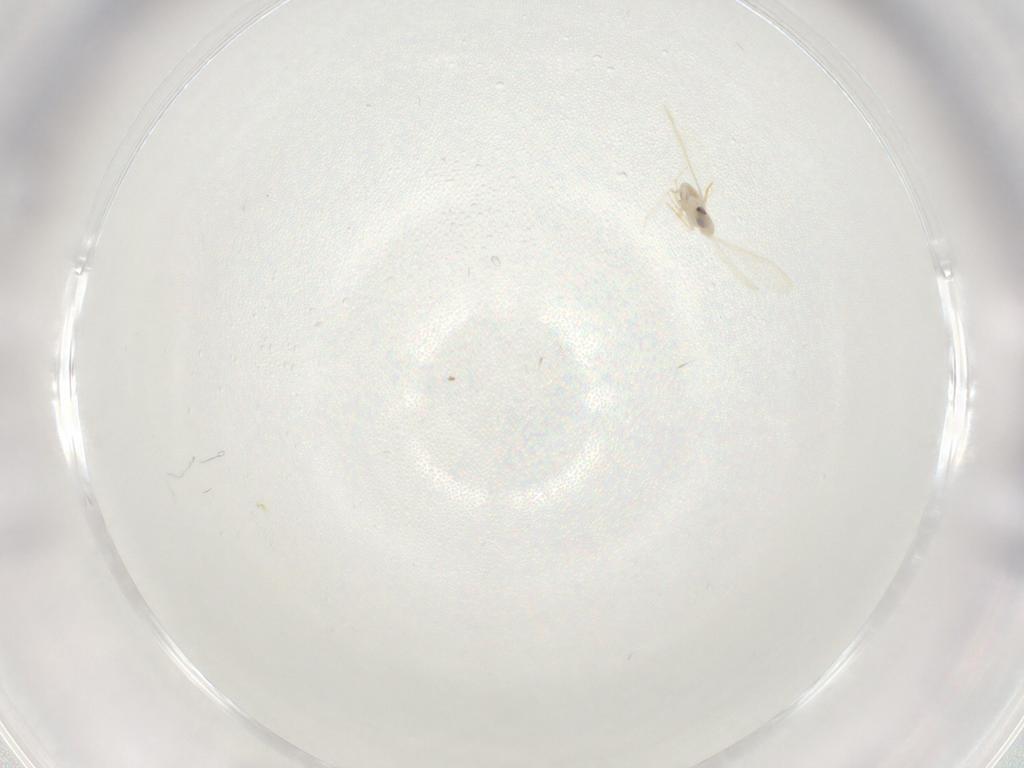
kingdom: Animalia
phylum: Arthropoda
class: Insecta
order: Hemiptera
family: Aleyrodidae
